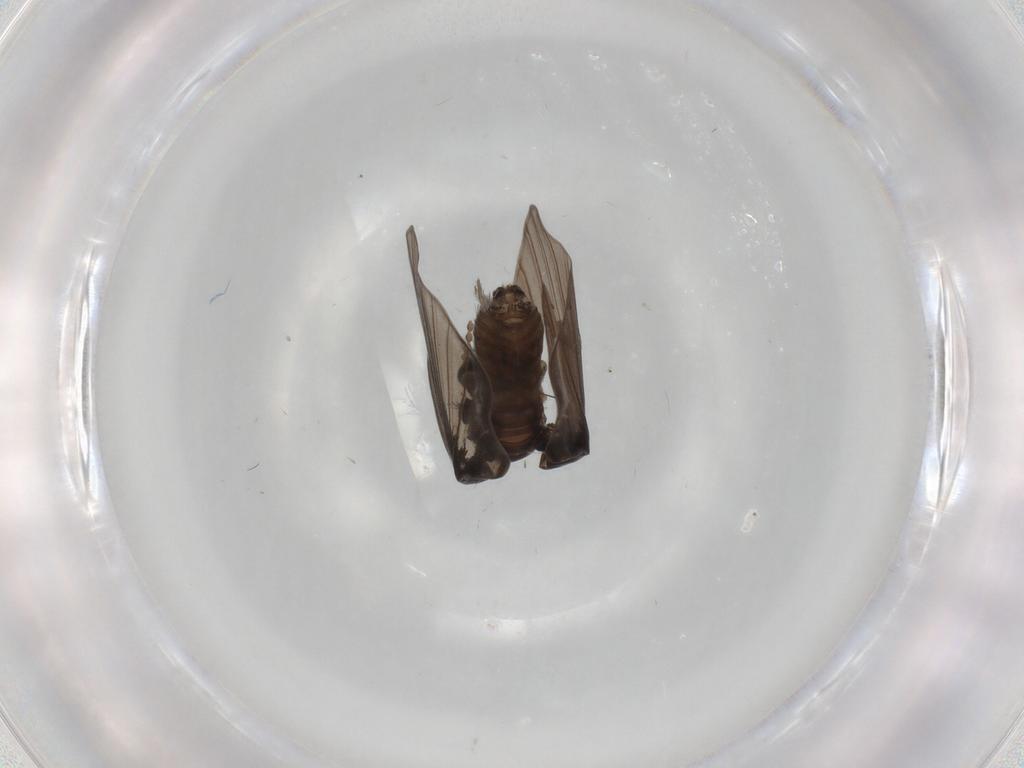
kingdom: Animalia
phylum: Arthropoda
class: Insecta
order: Diptera
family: Psychodidae
